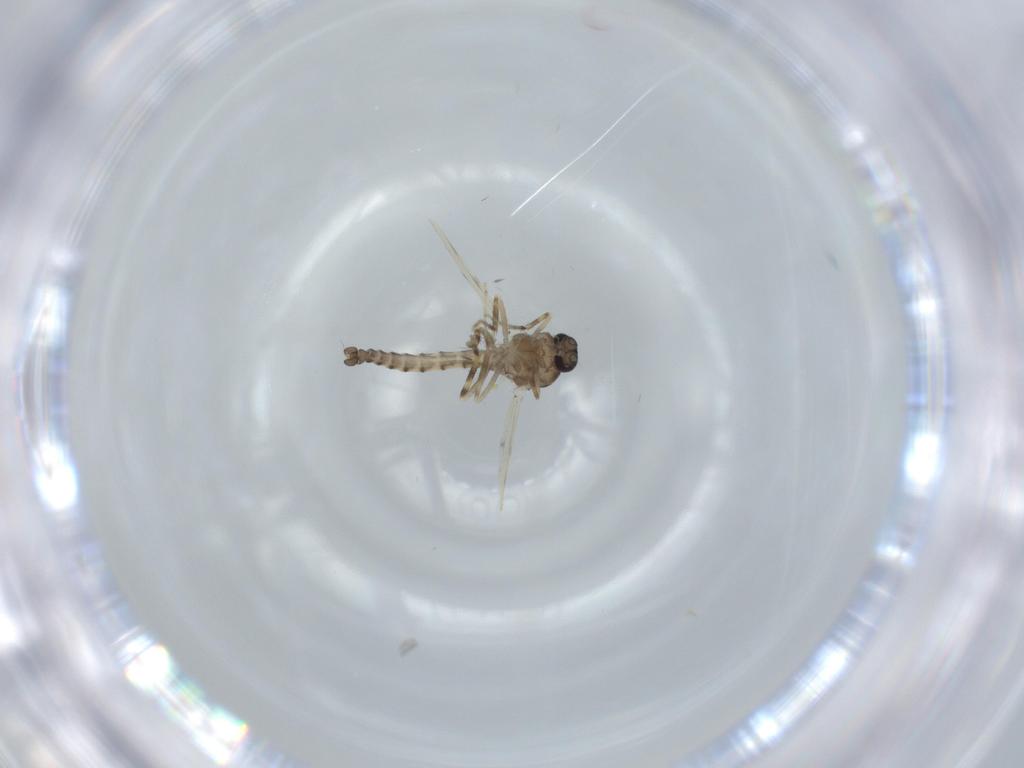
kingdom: Animalia
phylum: Arthropoda
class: Insecta
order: Diptera
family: Ceratopogonidae
